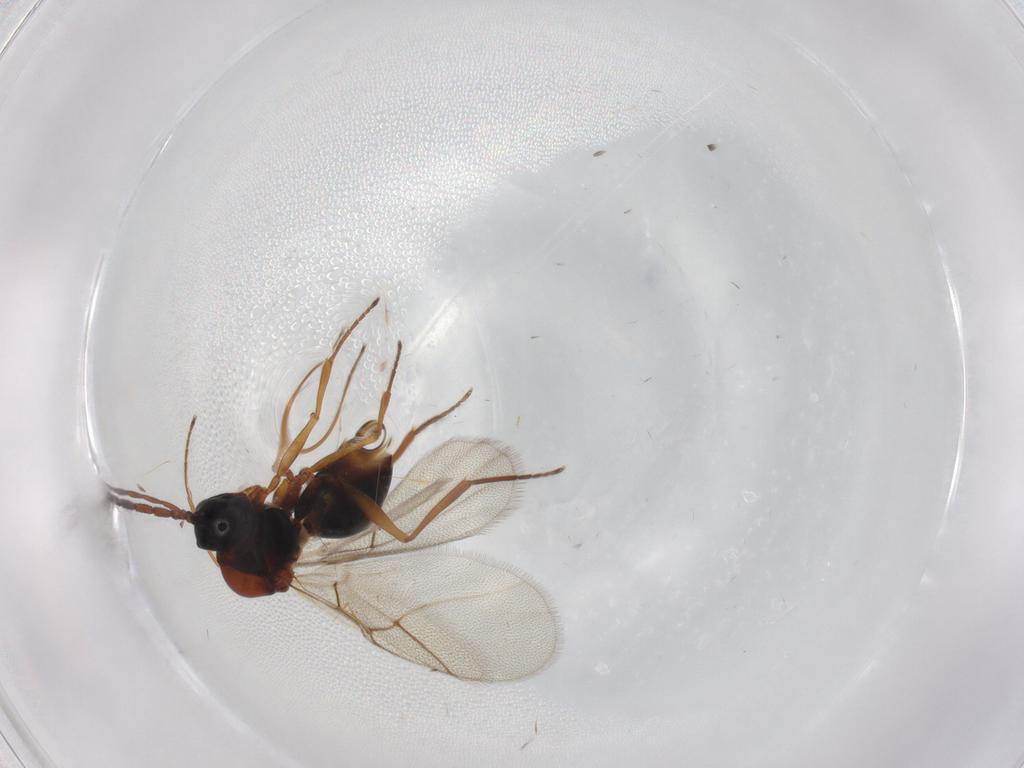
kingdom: Animalia
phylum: Arthropoda
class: Insecta
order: Hymenoptera
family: Figitidae
